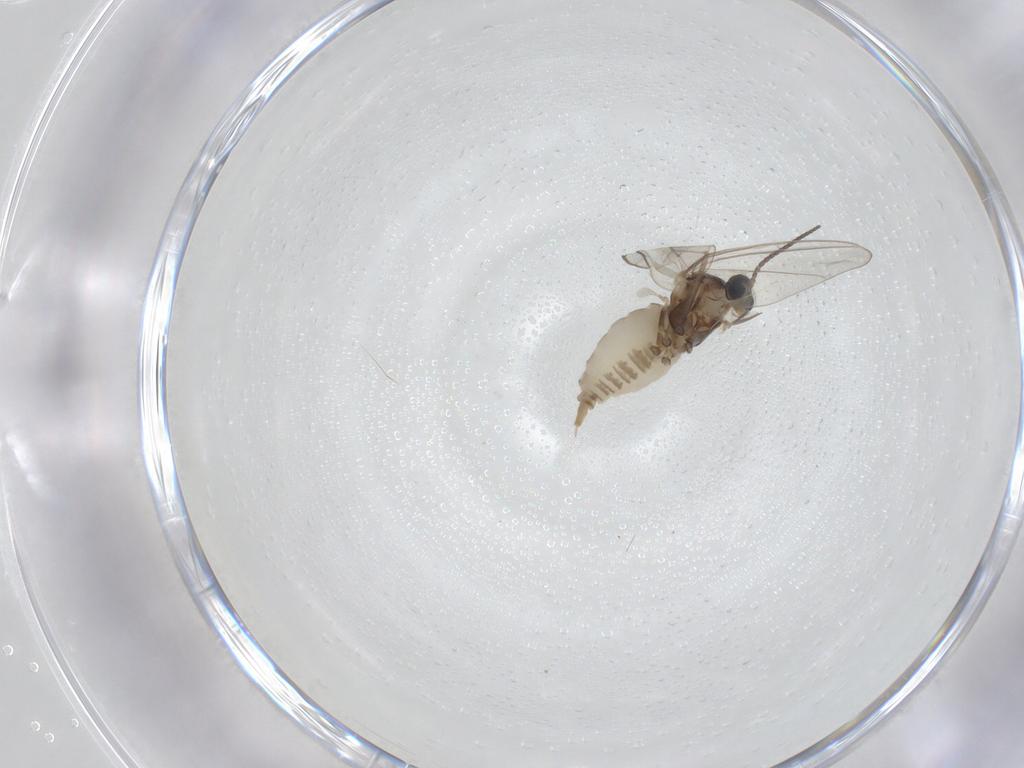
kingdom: Animalia
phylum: Arthropoda
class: Insecta
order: Diptera
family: Cecidomyiidae
